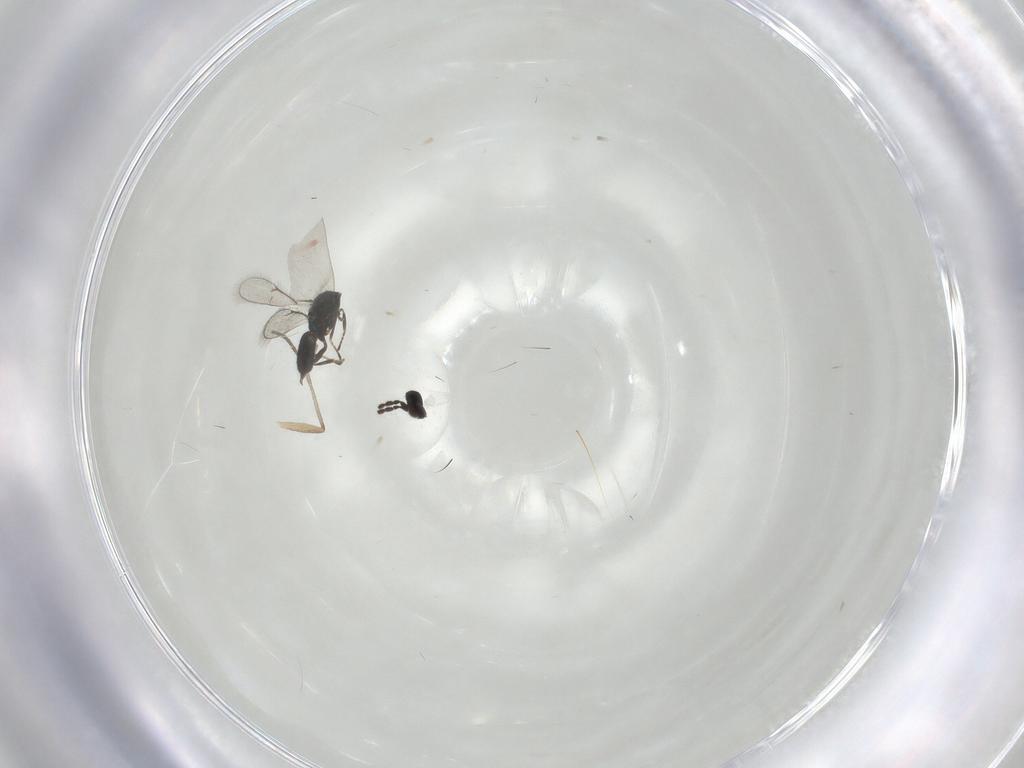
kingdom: Animalia
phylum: Arthropoda
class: Insecta
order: Hymenoptera
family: Eulophidae
